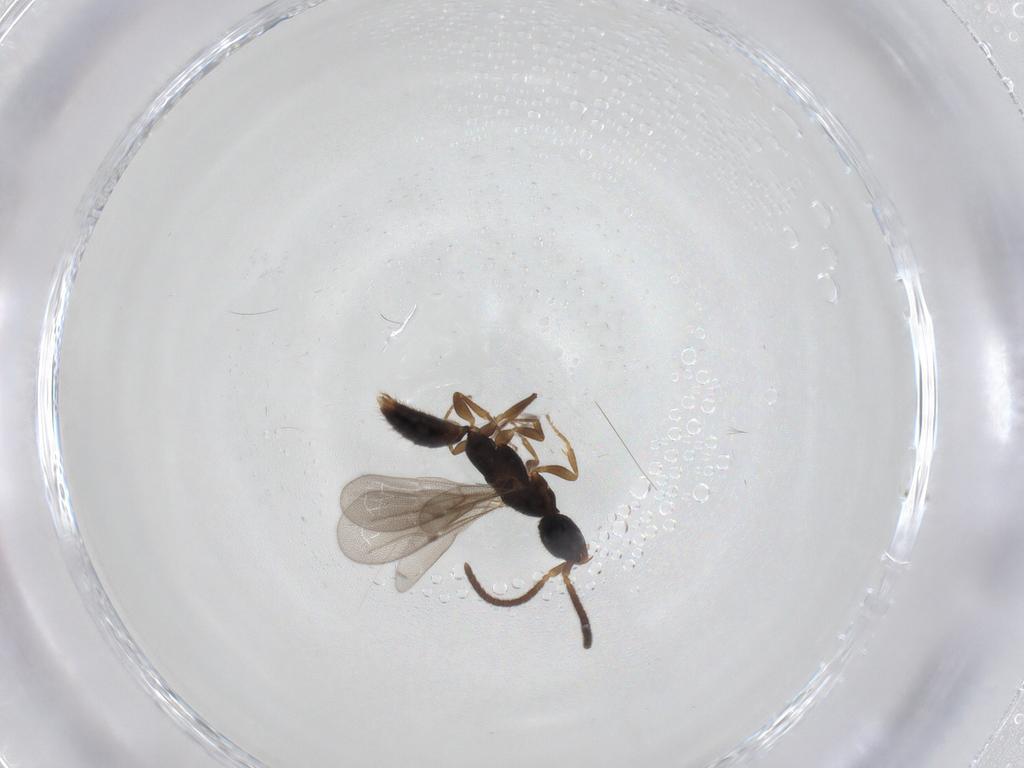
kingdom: Animalia
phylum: Arthropoda
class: Insecta
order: Hymenoptera
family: Bethylidae
